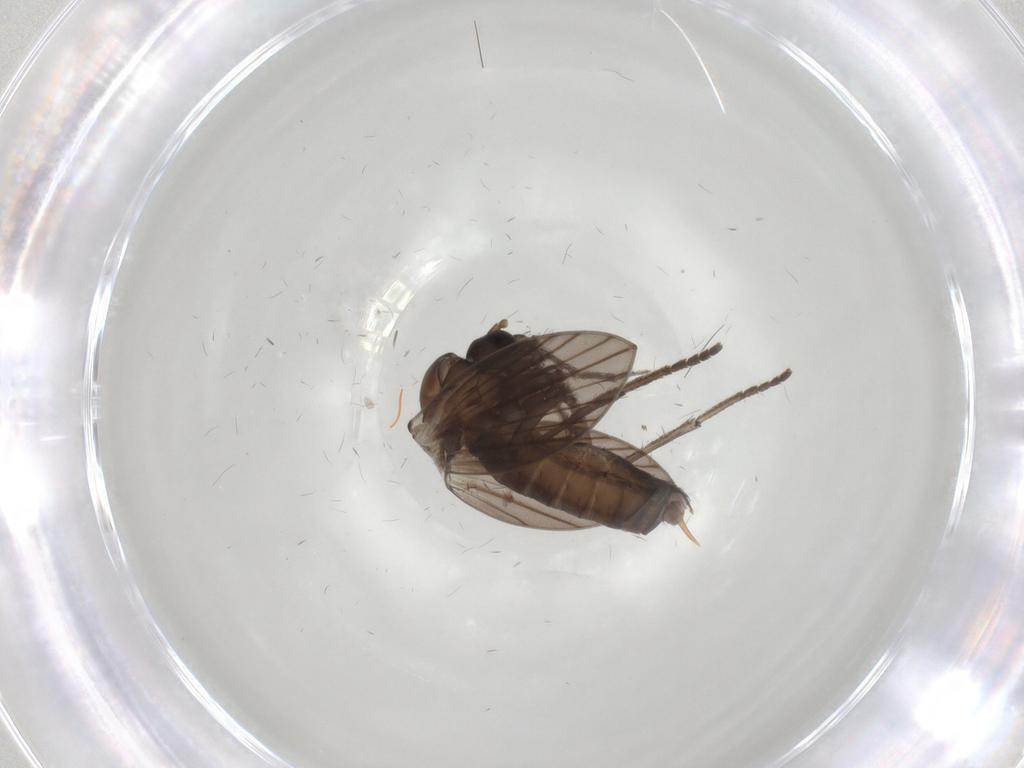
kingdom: Animalia
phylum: Arthropoda
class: Insecta
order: Diptera
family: Psychodidae
